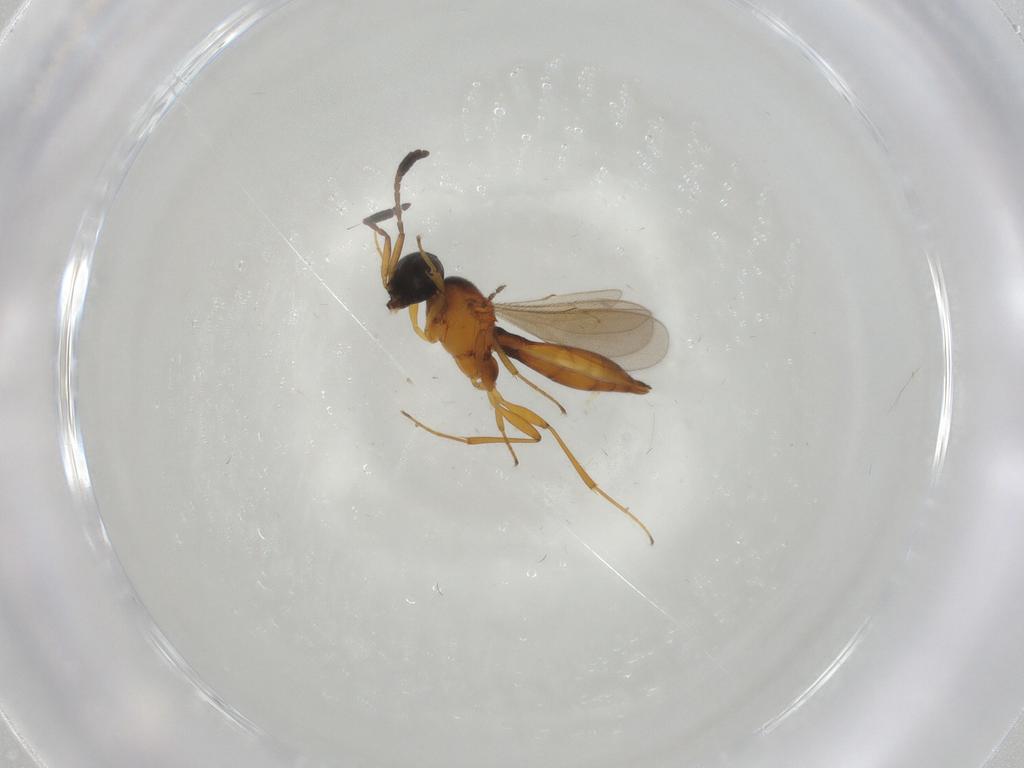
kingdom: Animalia
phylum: Arthropoda
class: Insecta
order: Hymenoptera
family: Scelionidae
